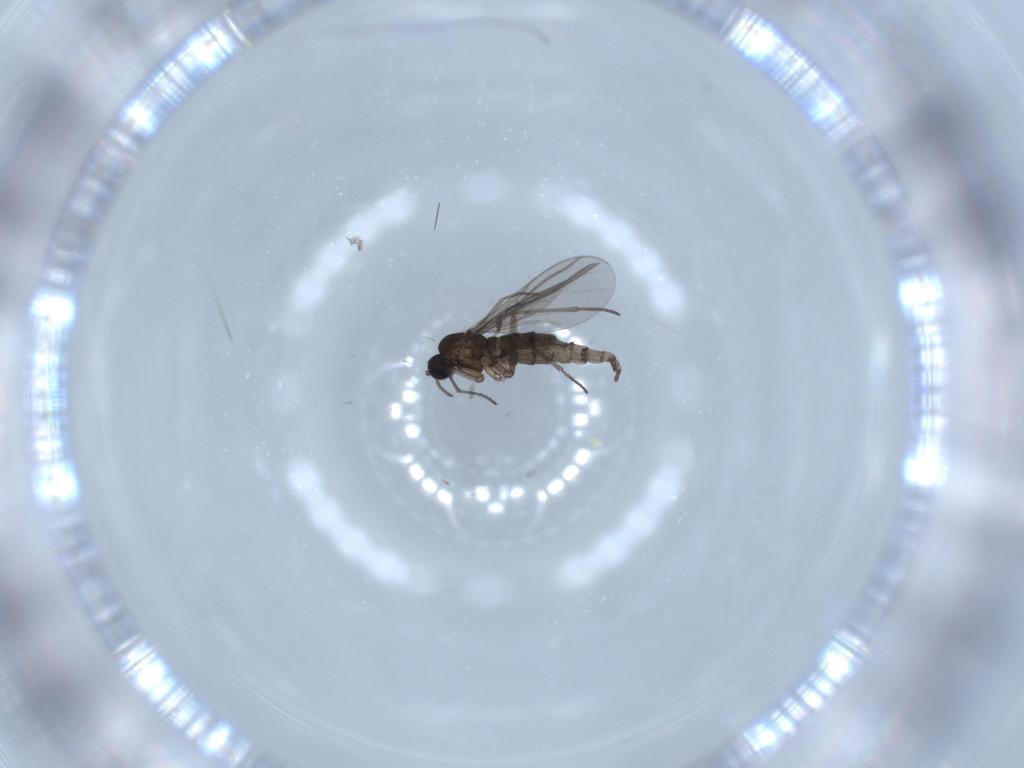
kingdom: Animalia
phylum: Arthropoda
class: Insecta
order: Diptera
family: Sciaridae
